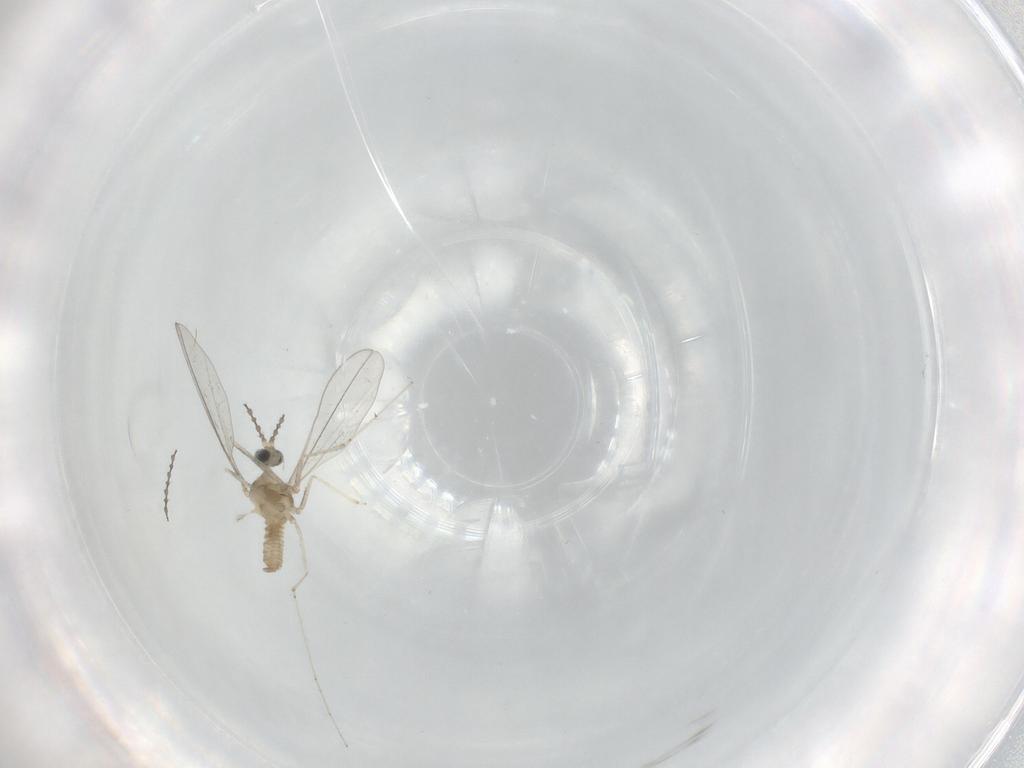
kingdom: Animalia
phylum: Arthropoda
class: Insecta
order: Diptera
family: Cecidomyiidae
